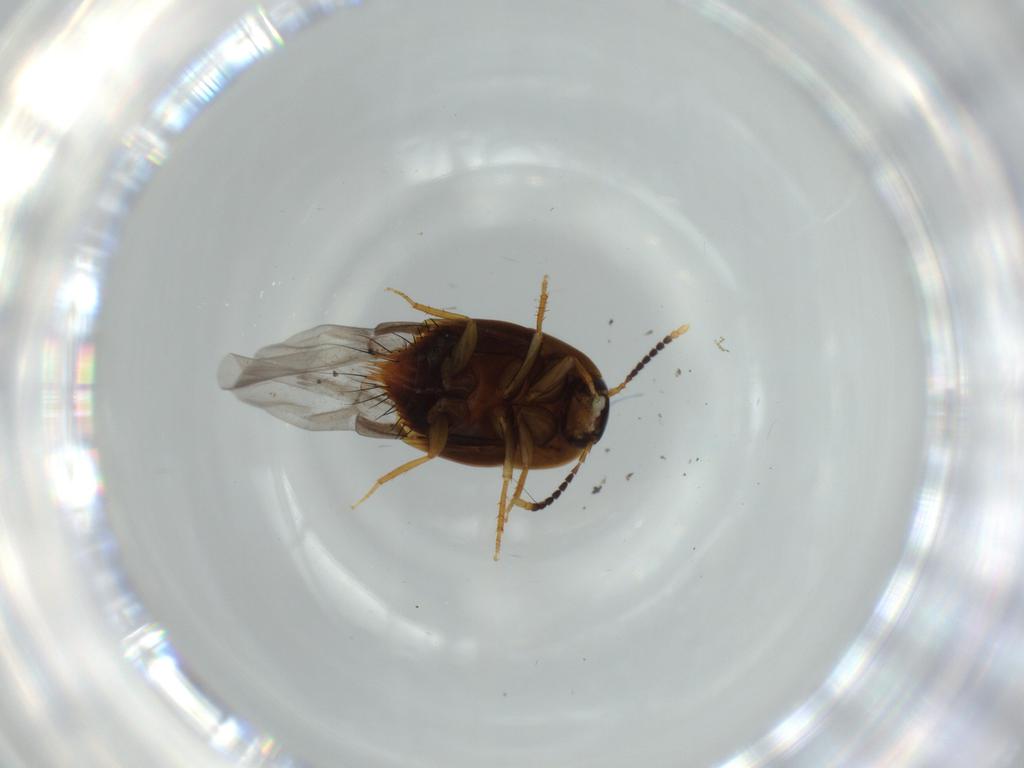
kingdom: Animalia
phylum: Arthropoda
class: Insecta
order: Coleoptera
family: Staphylinidae
